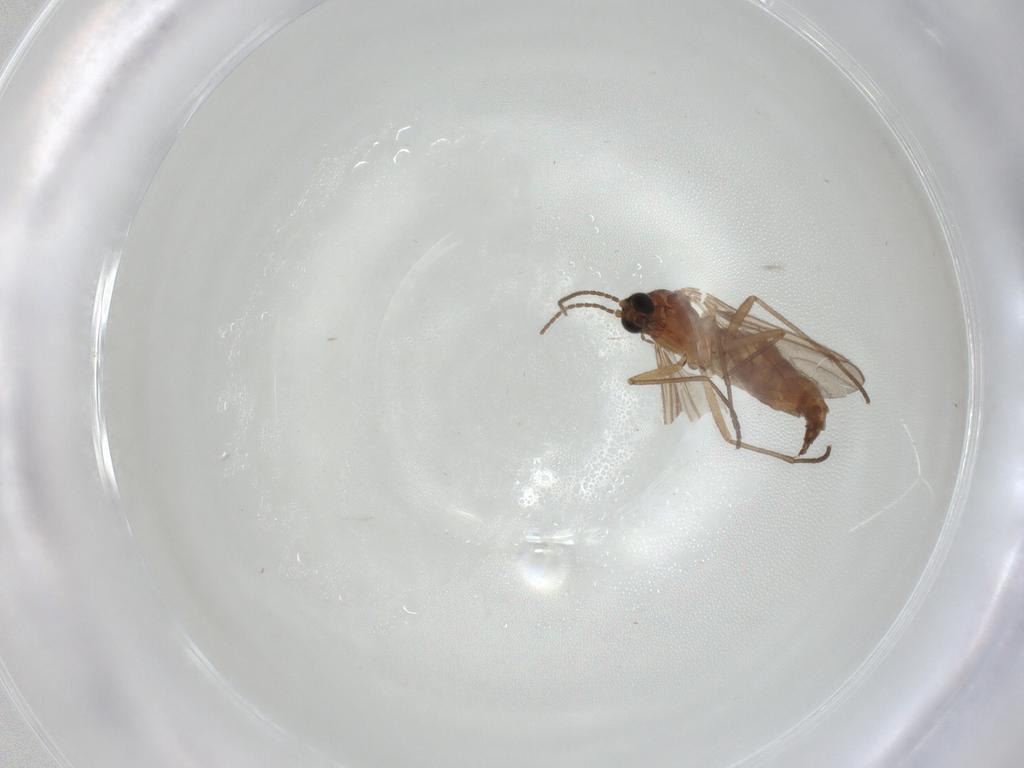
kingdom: Animalia
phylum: Arthropoda
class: Insecta
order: Diptera
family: Sciaridae
